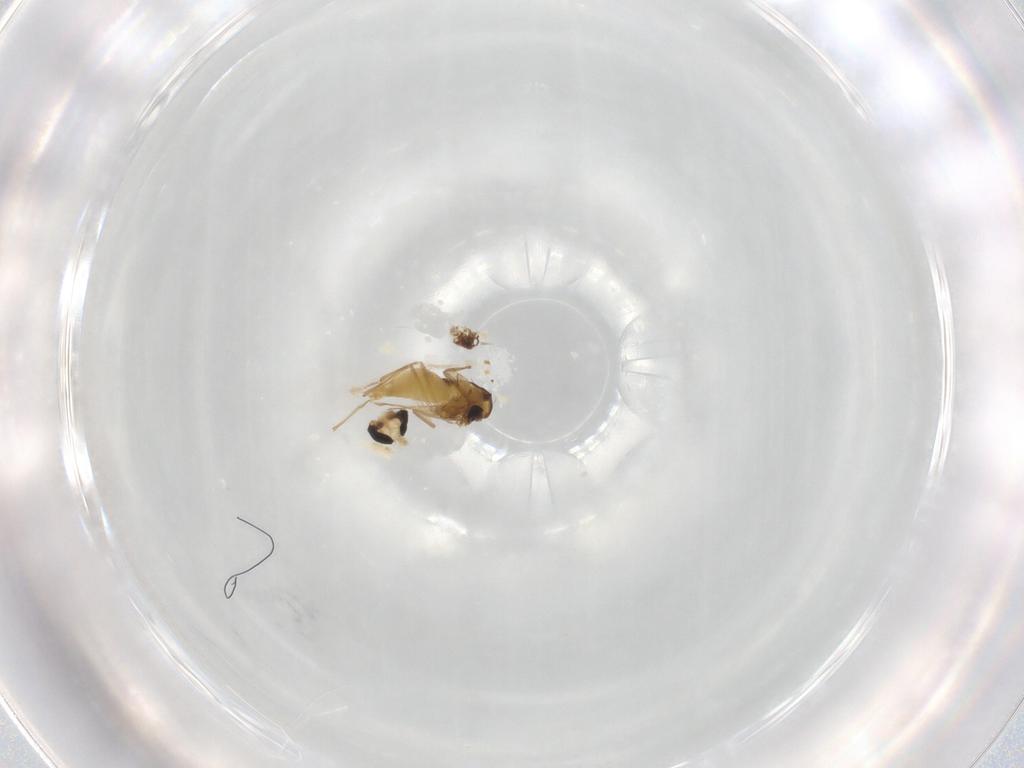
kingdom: Animalia
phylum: Arthropoda
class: Insecta
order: Diptera
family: Chironomidae
